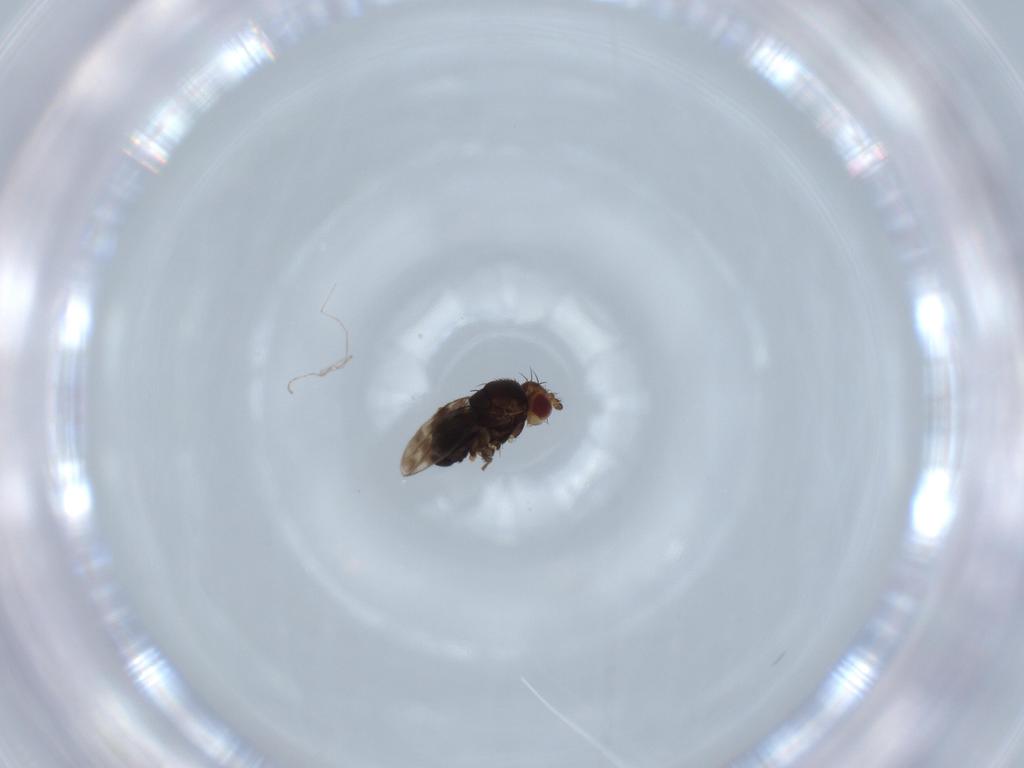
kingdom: Animalia
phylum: Arthropoda
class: Insecta
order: Diptera
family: Sphaeroceridae
